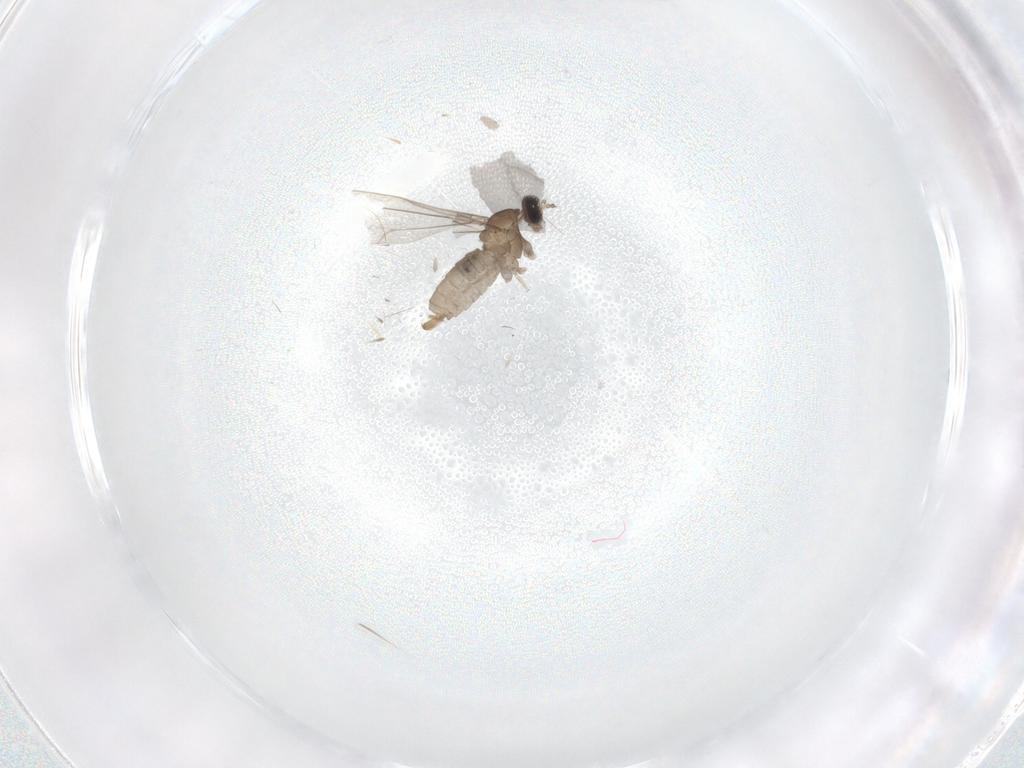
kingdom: Animalia
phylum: Arthropoda
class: Insecta
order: Diptera
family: Cecidomyiidae
